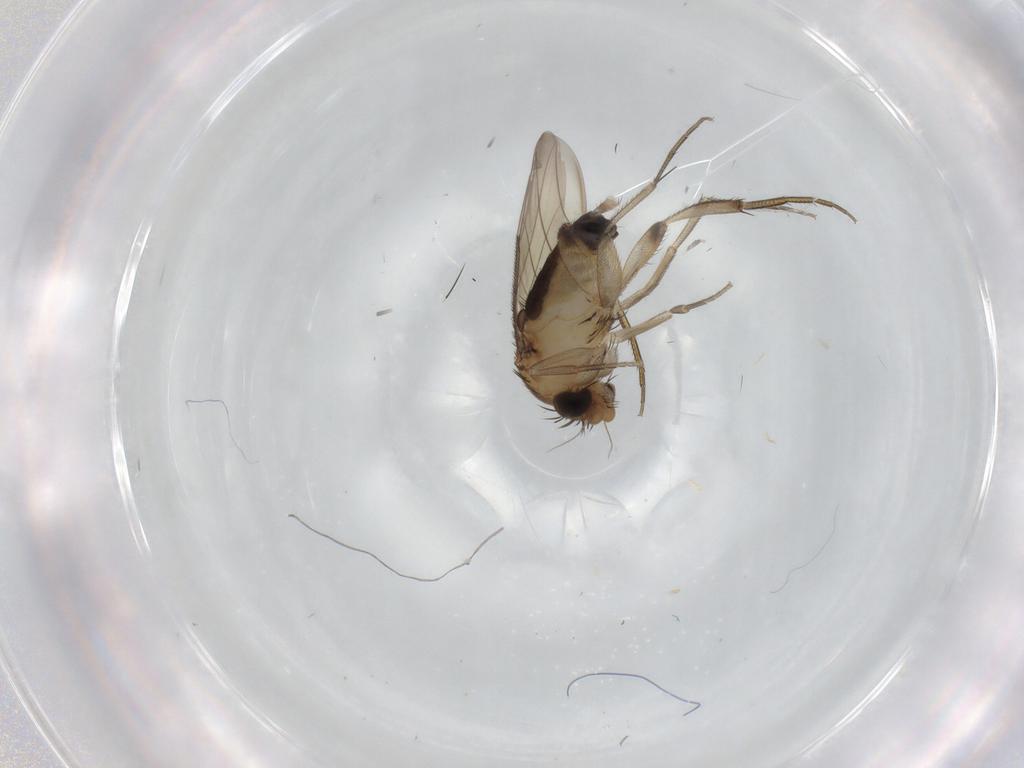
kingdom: Animalia
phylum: Arthropoda
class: Insecta
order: Diptera
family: Phoridae
